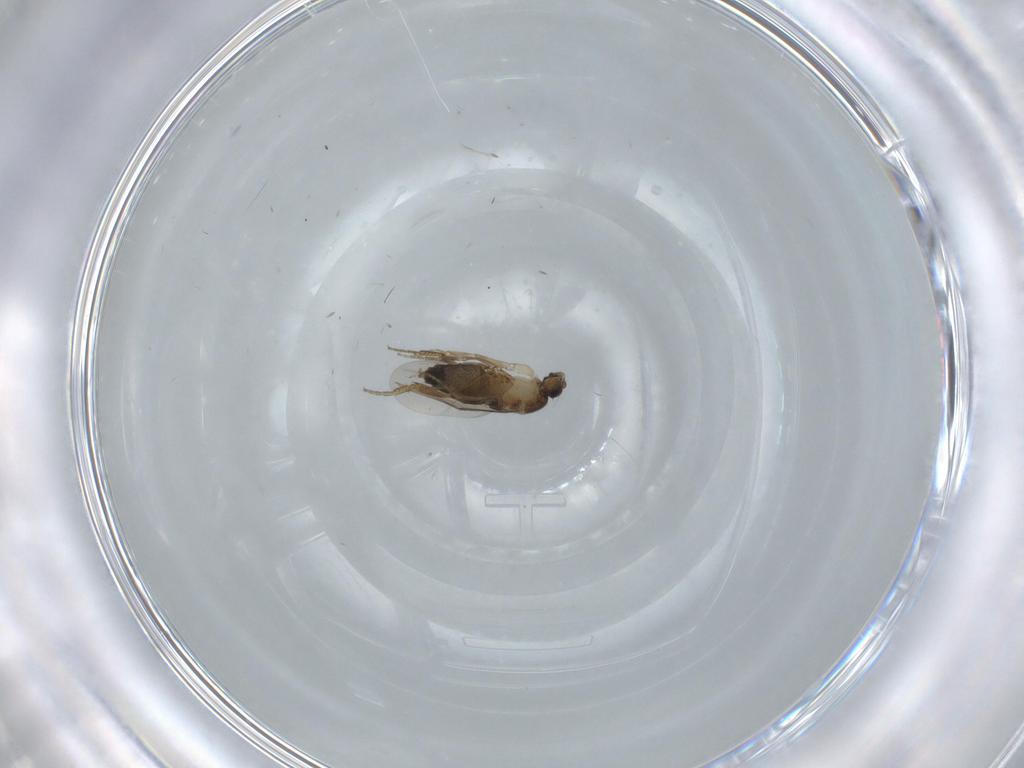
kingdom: Animalia
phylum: Arthropoda
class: Insecta
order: Diptera
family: Phoridae
